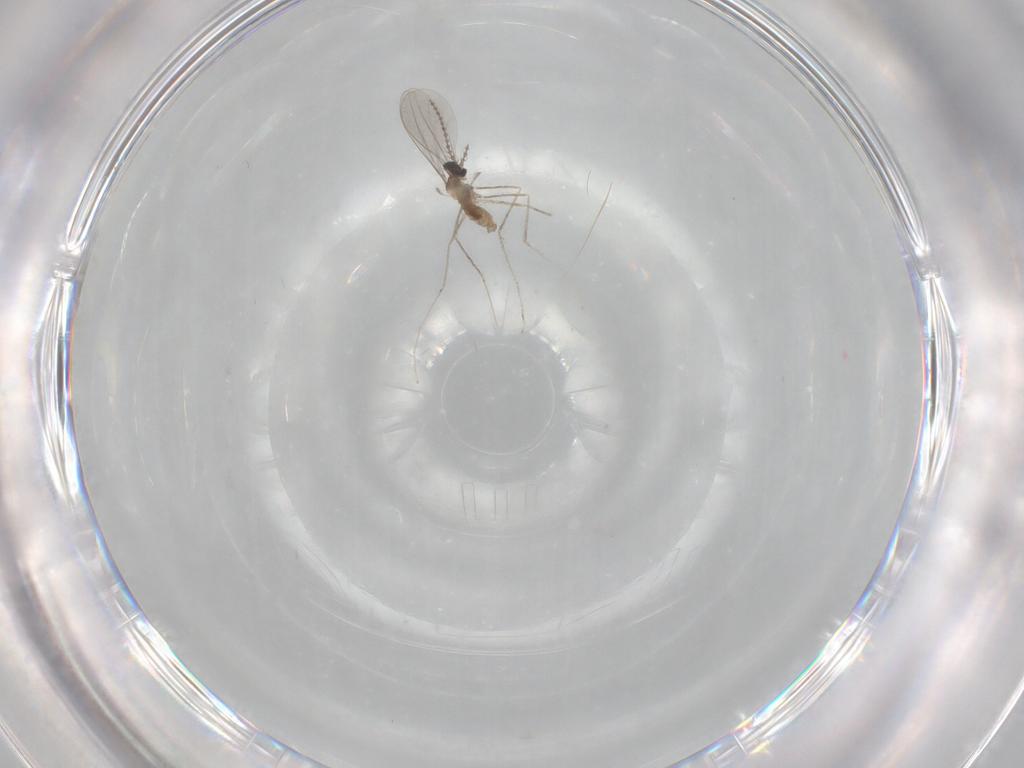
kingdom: Animalia
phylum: Arthropoda
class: Insecta
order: Diptera
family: Cecidomyiidae
